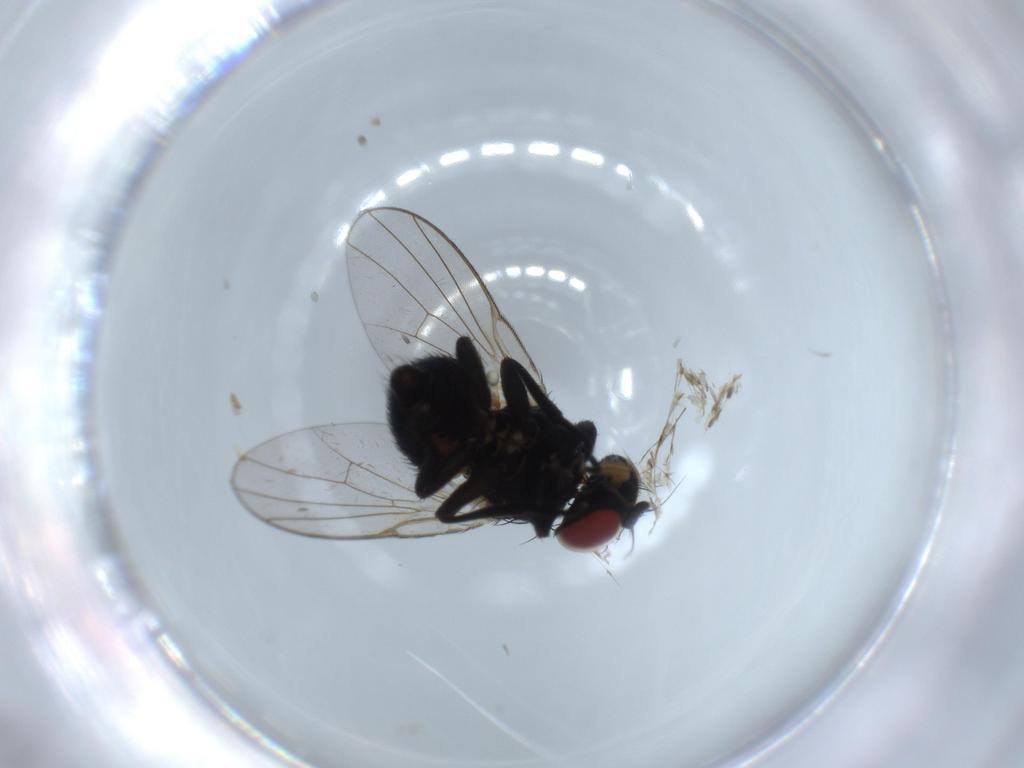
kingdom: Animalia
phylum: Arthropoda
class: Insecta
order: Diptera
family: Agromyzidae
